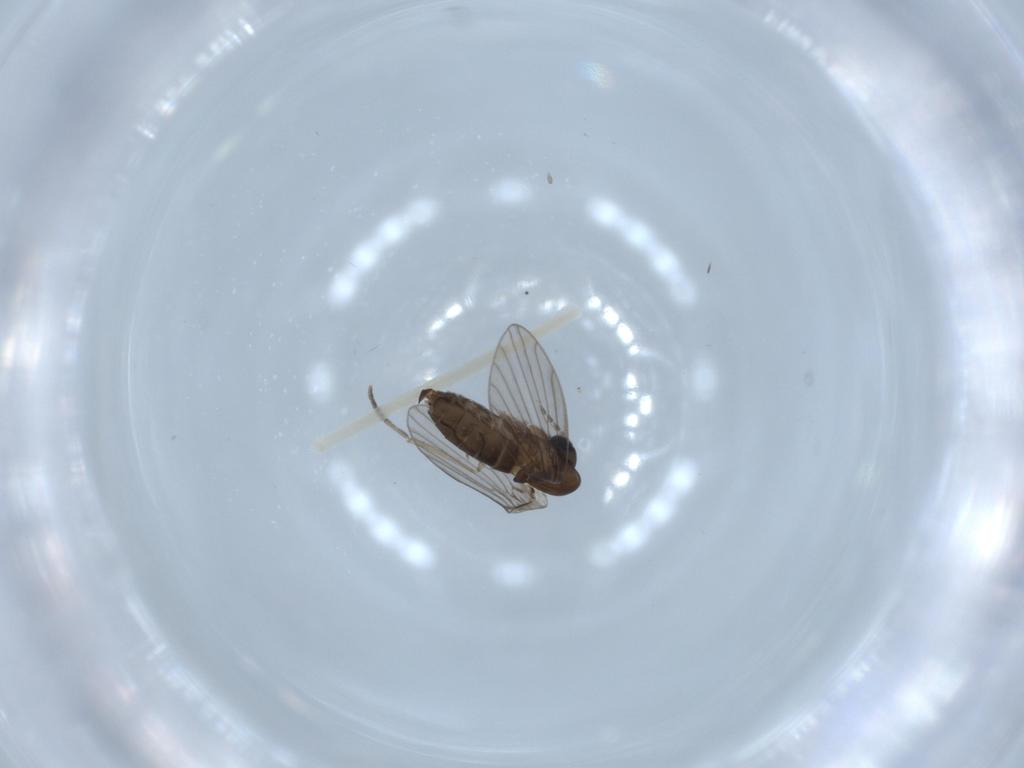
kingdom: Animalia
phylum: Arthropoda
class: Insecta
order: Diptera
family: Psychodidae
